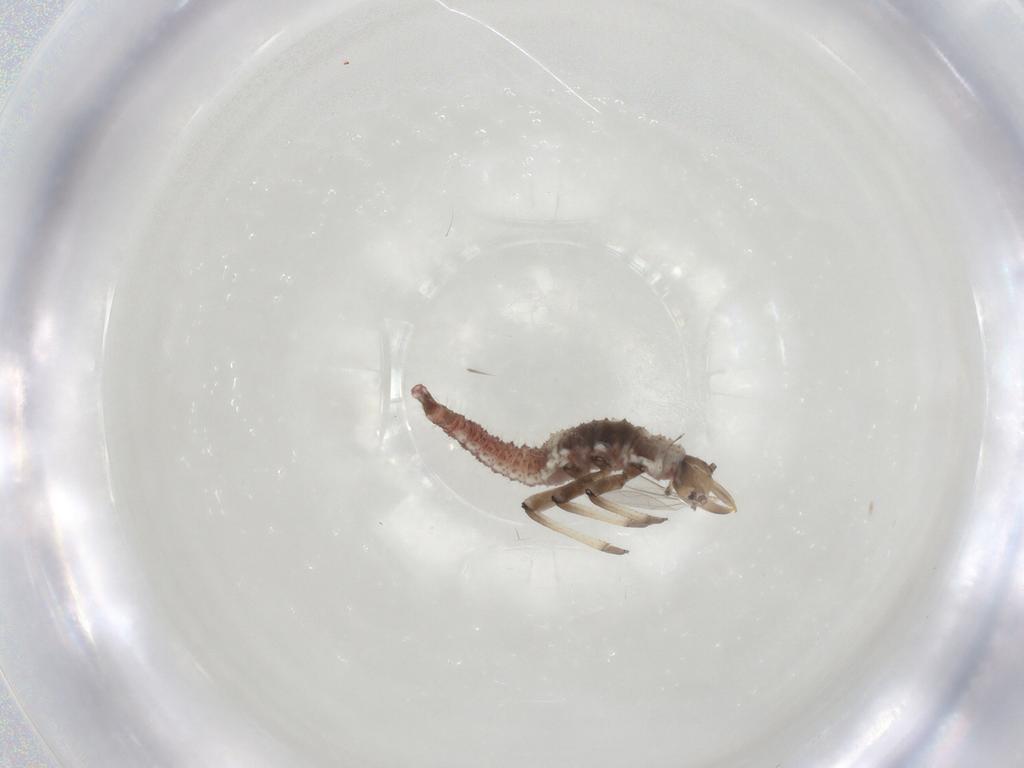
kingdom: Animalia
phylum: Arthropoda
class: Insecta
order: Neuroptera
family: Hemerobiidae
